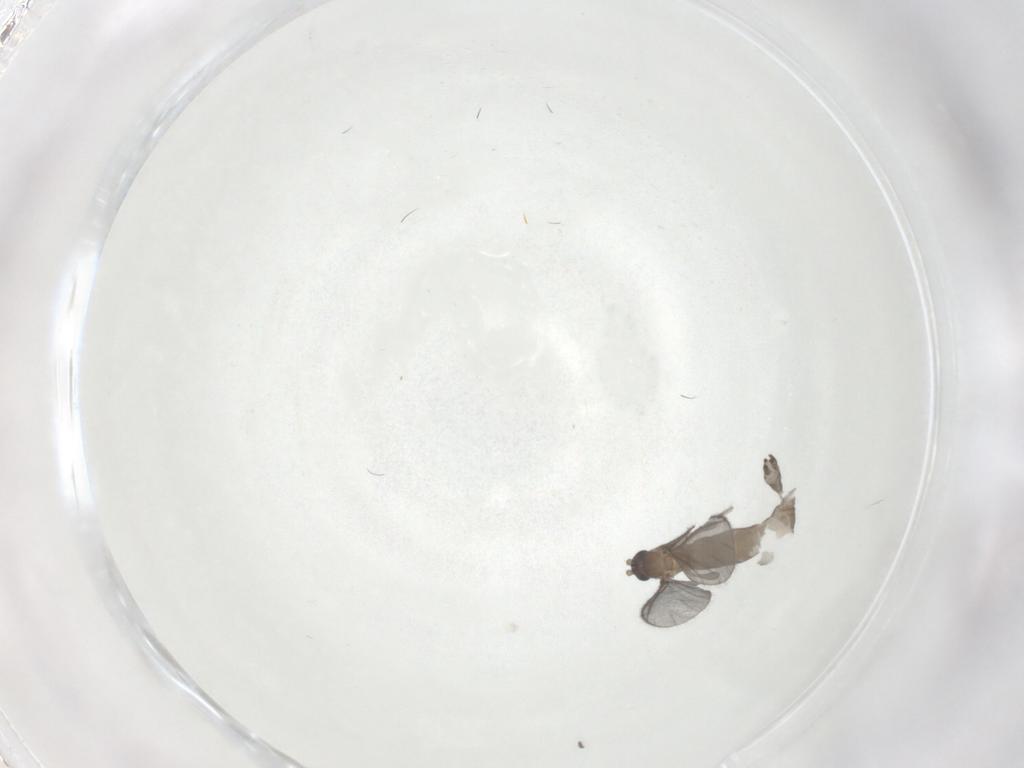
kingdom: Animalia
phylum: Arthropoda
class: Insecta
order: Diptera
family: Sciaridae
